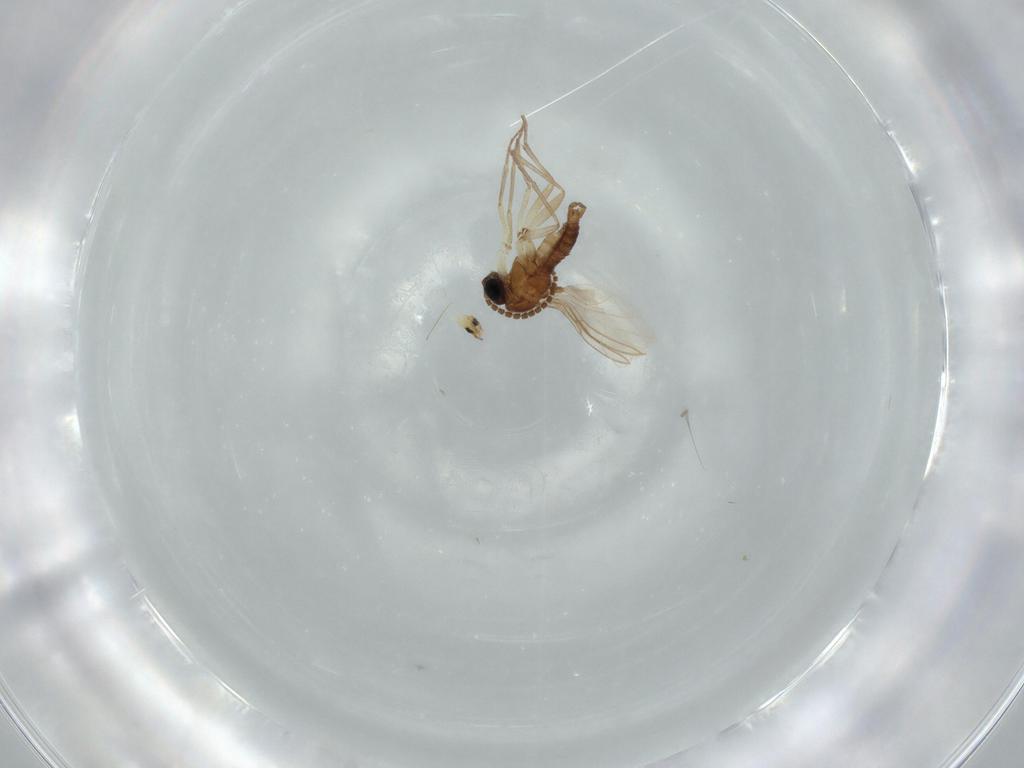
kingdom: Animalia
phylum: Arthropoda
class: Insecta
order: Diptera
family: Sciaridae
